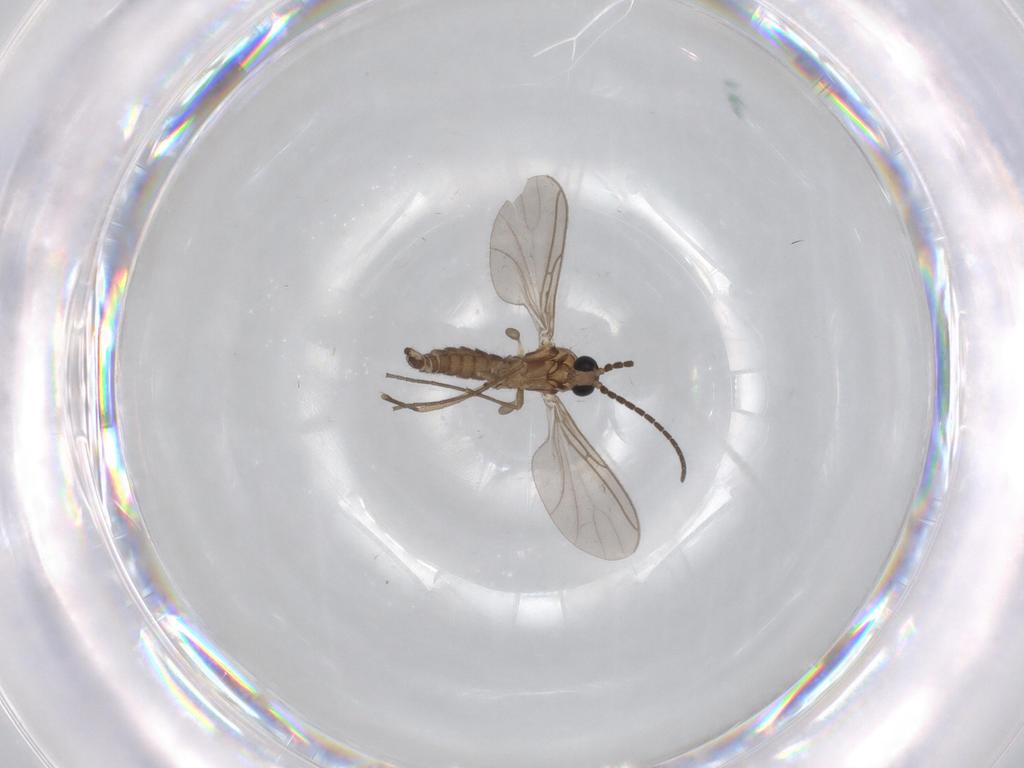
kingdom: Animalia
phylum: Arthropoda
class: Insecta
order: Diptera
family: Sciaridae
